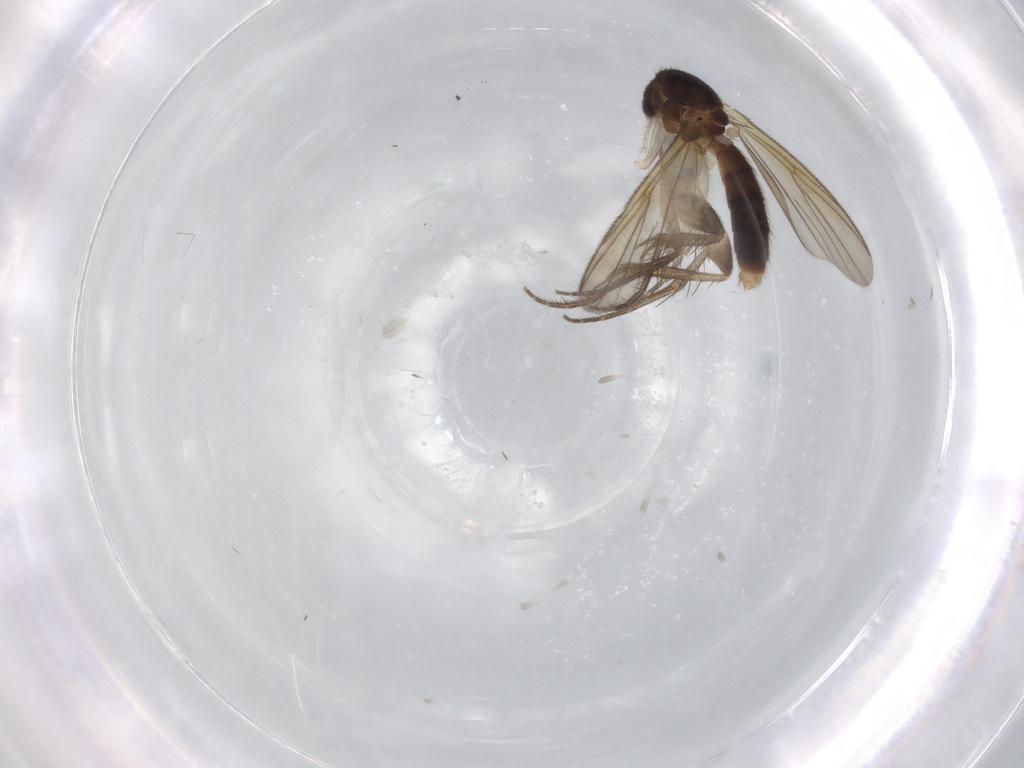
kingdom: Animalia
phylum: Arthropoda
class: Insecta
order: Diptera
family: Mycetophilidae
